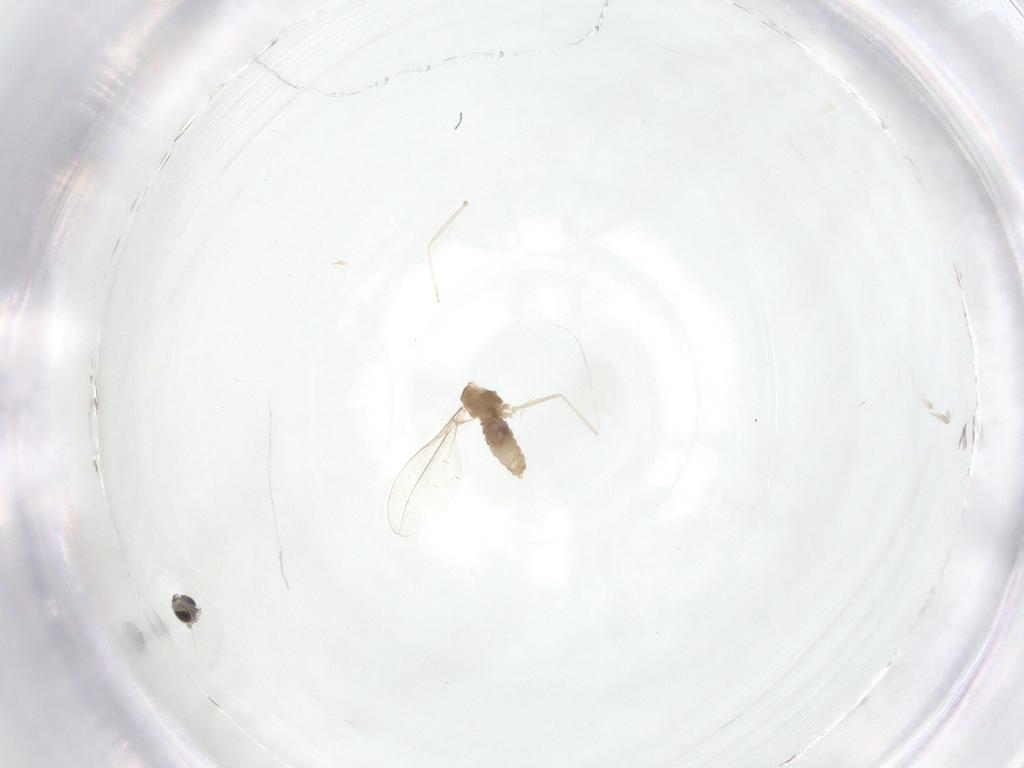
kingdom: Animalia
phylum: Arthropoda
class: Insecta
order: Diptera
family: Cecidomyiidae
